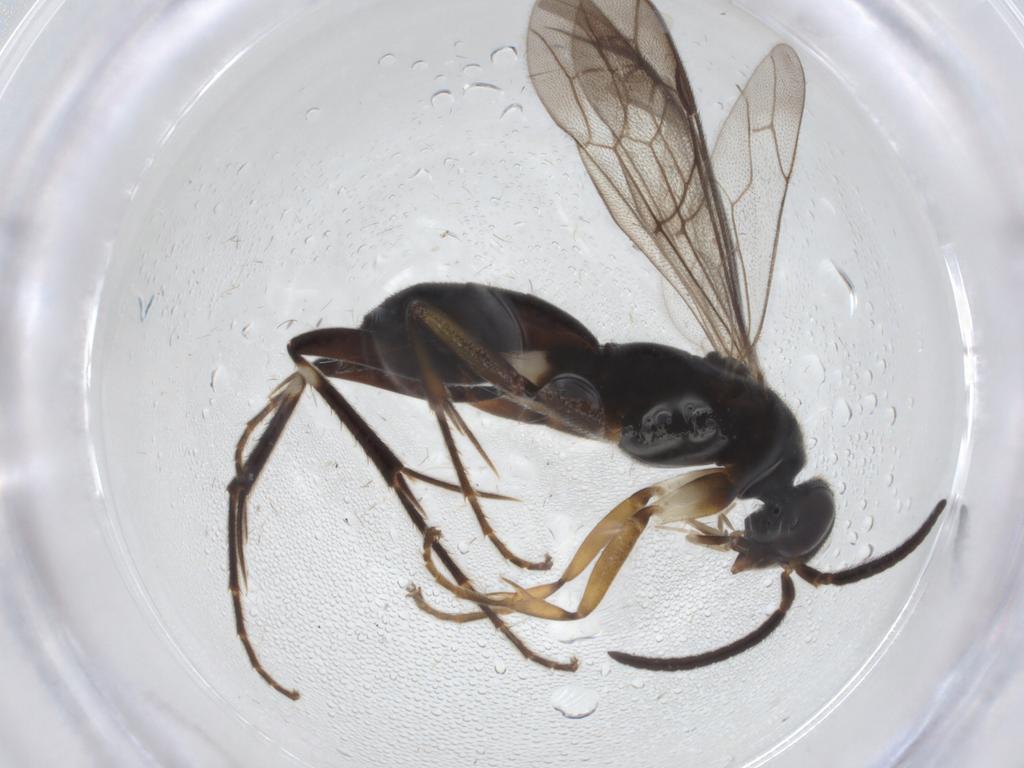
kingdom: Animalia
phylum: Arthropoda
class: Insecta
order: Hymenoptera
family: Pompilidae
